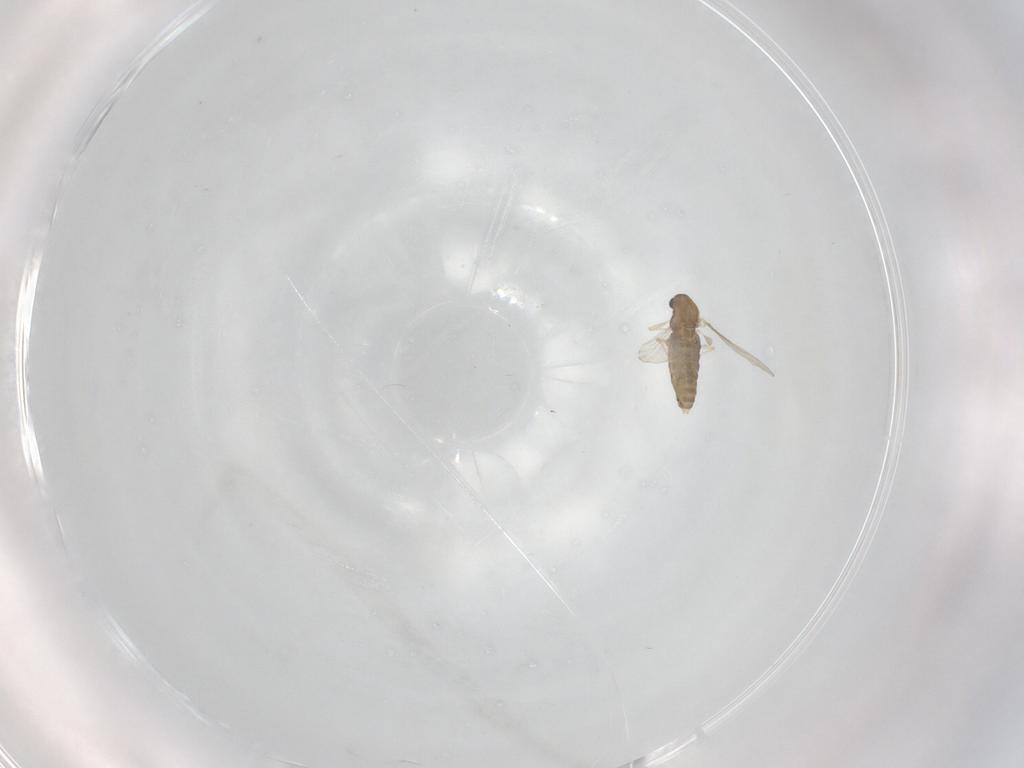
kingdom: Animalia
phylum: Arthropoda
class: Insecta
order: Diptera
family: Chironomidae
